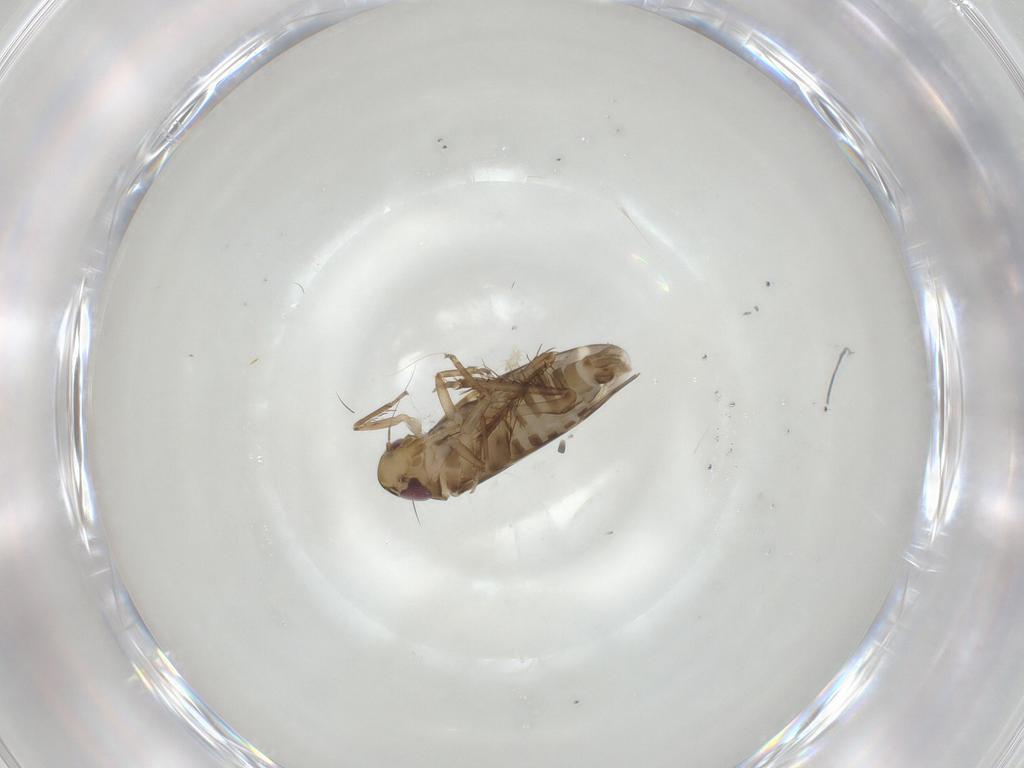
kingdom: Animalia
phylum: Arthropoda
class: Insecta
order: Hemiptera
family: Cicadellidae
